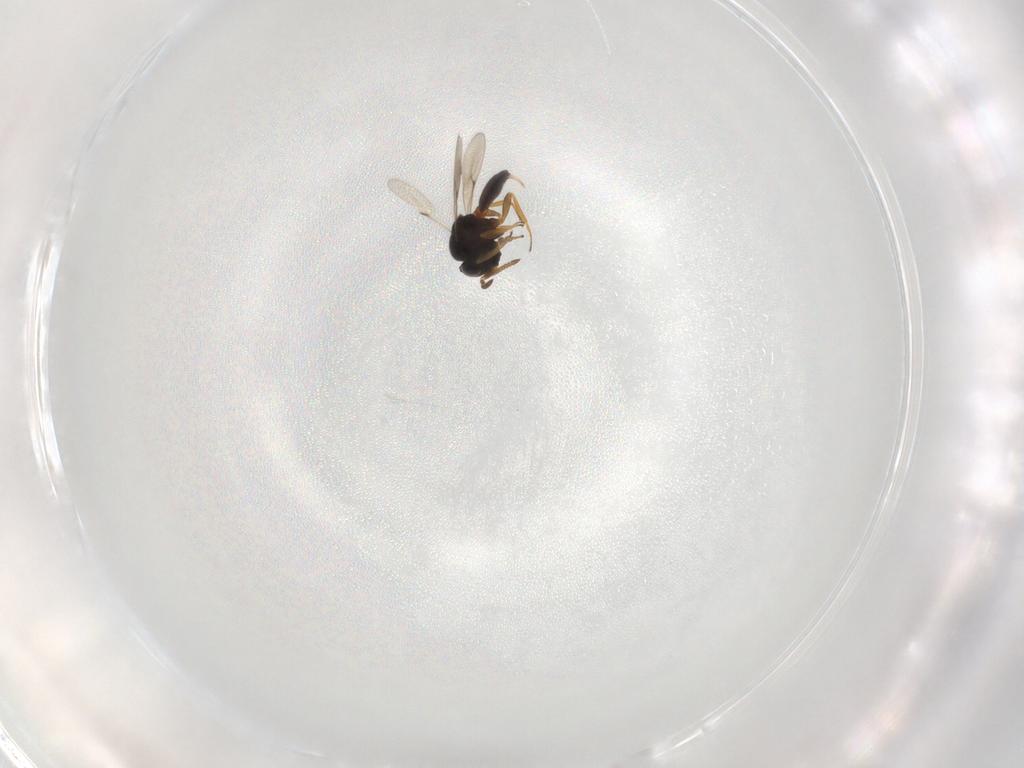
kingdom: Animalia
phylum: Arthropoda
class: Insecta
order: Hymenoptera
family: Scelionidae
